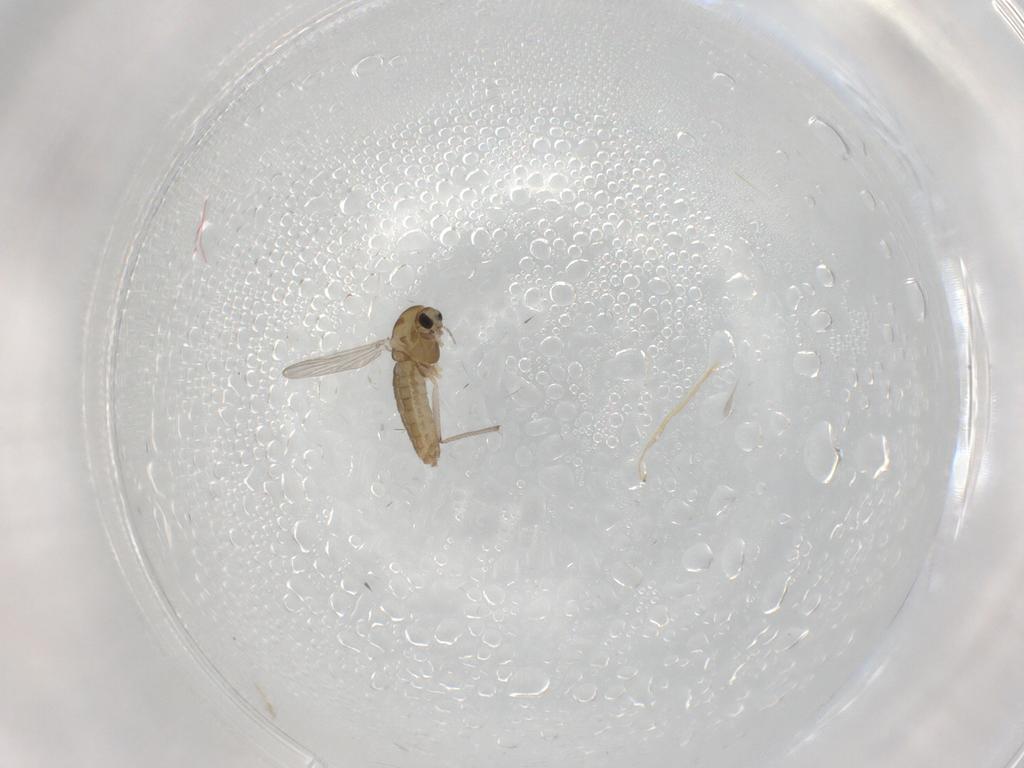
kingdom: Animalia
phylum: Arthropoda
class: Insecta
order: Diptera
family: Chironomidae
